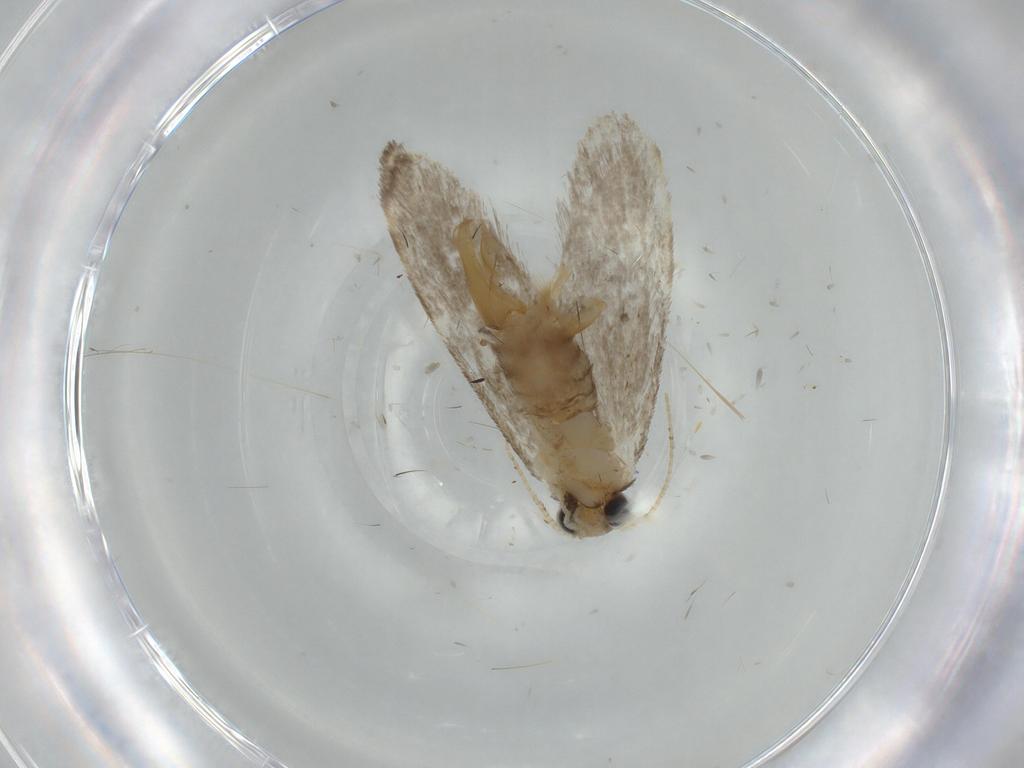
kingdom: Animalia
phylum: Arthropoda
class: Insecta
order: Lepidoptera
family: Tineidae
